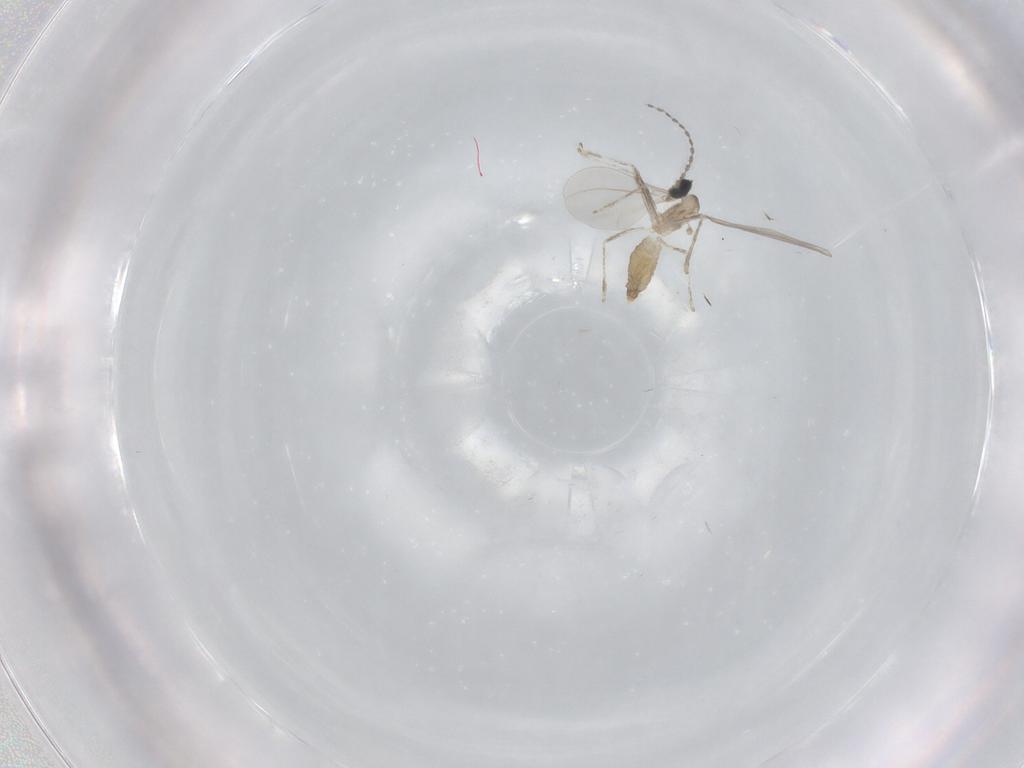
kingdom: Animalia
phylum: Arthropoda
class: Insecta
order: Diptera
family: Cecidomyiidae
